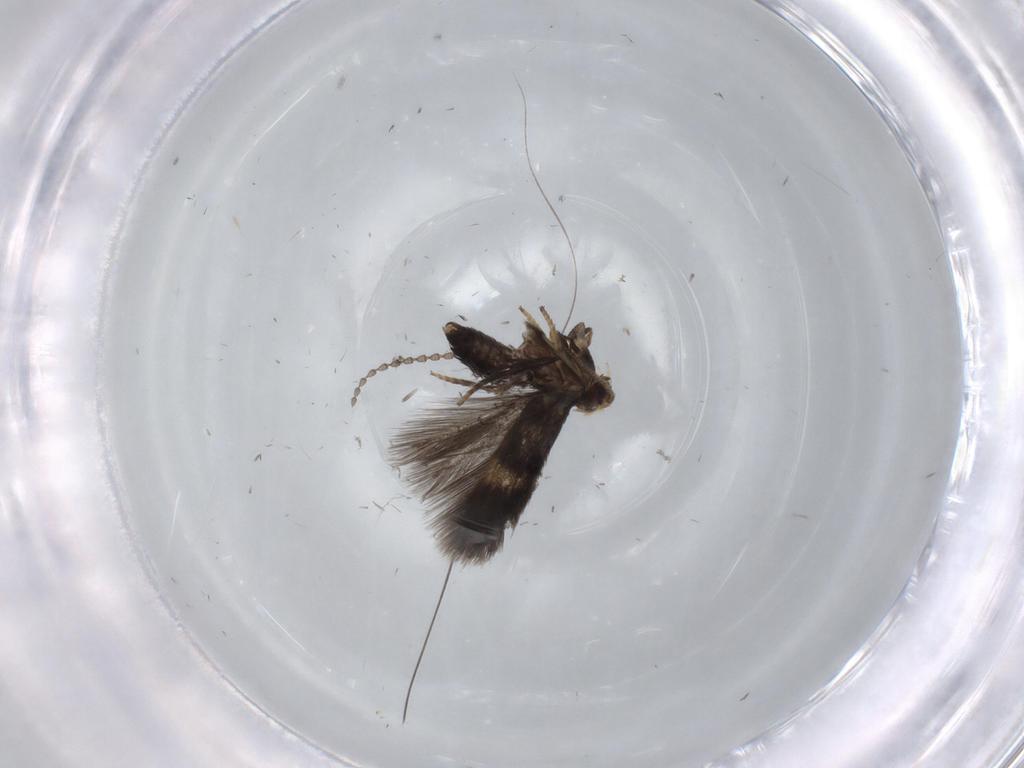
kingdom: Animalia
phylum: Arthropoda
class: Insecta
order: Lepidoptera
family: Nepticulidae
